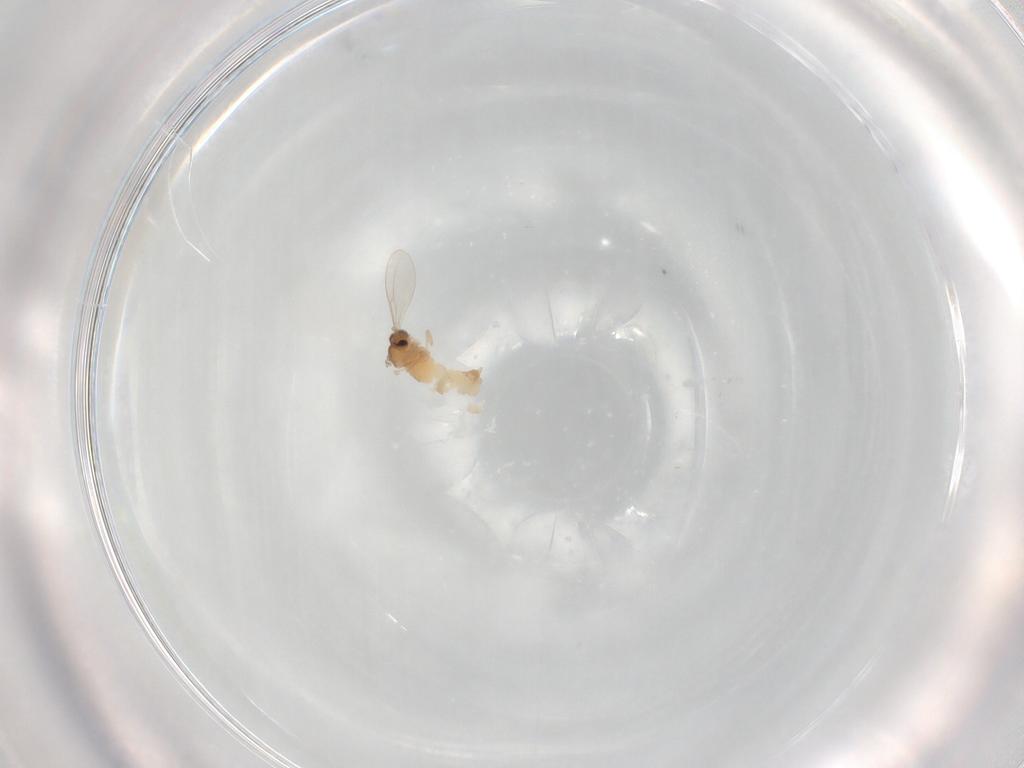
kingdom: Animalia
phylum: Arthropoda
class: Insecta
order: Diptera
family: Cecidomyiidae
